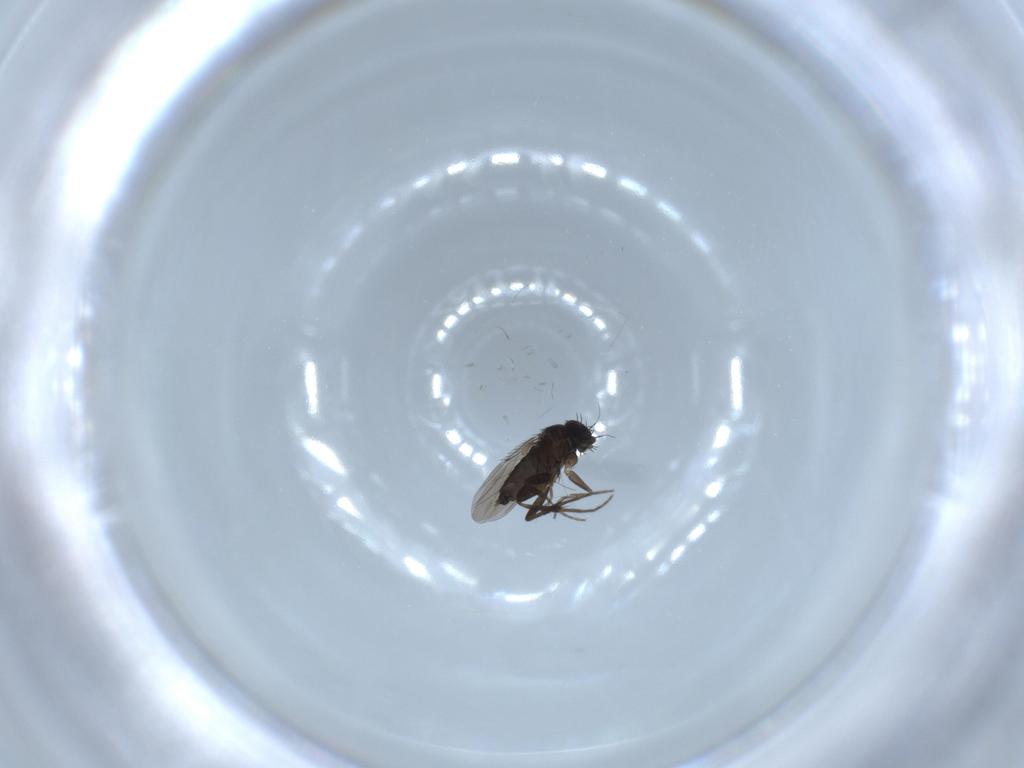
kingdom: Animalia
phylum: Arthropoda
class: Insecta
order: Diptera
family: Phoridae
